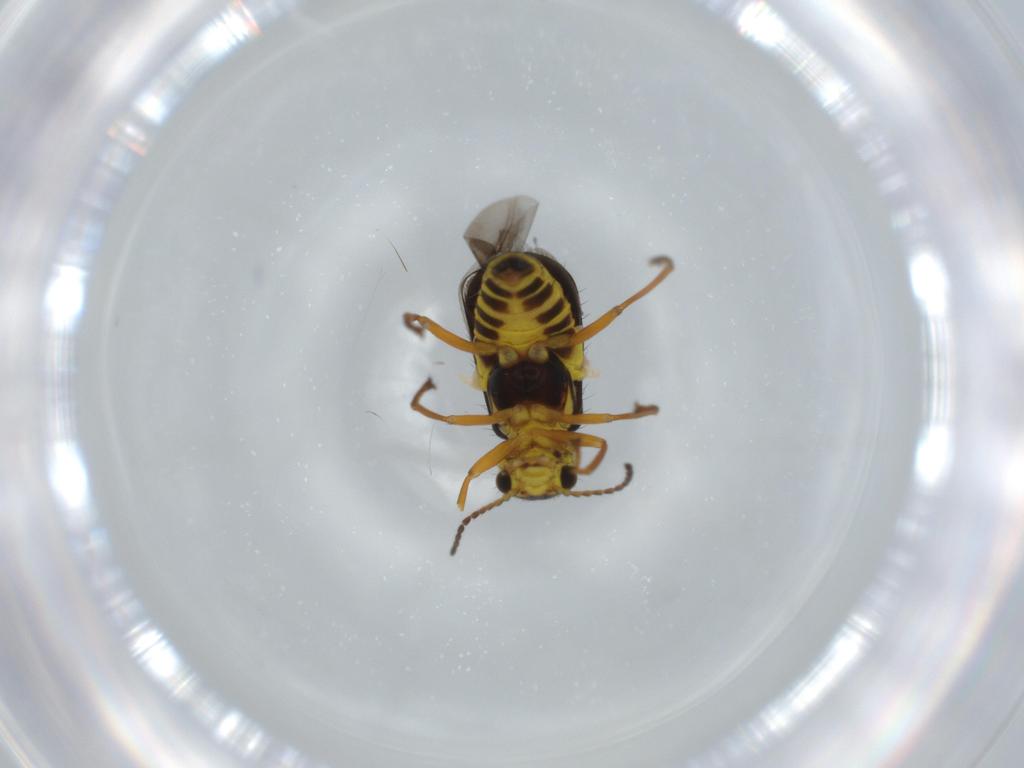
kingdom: Animalia
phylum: Arthropoda
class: Insecta
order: Coleoptera
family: Melyridae
